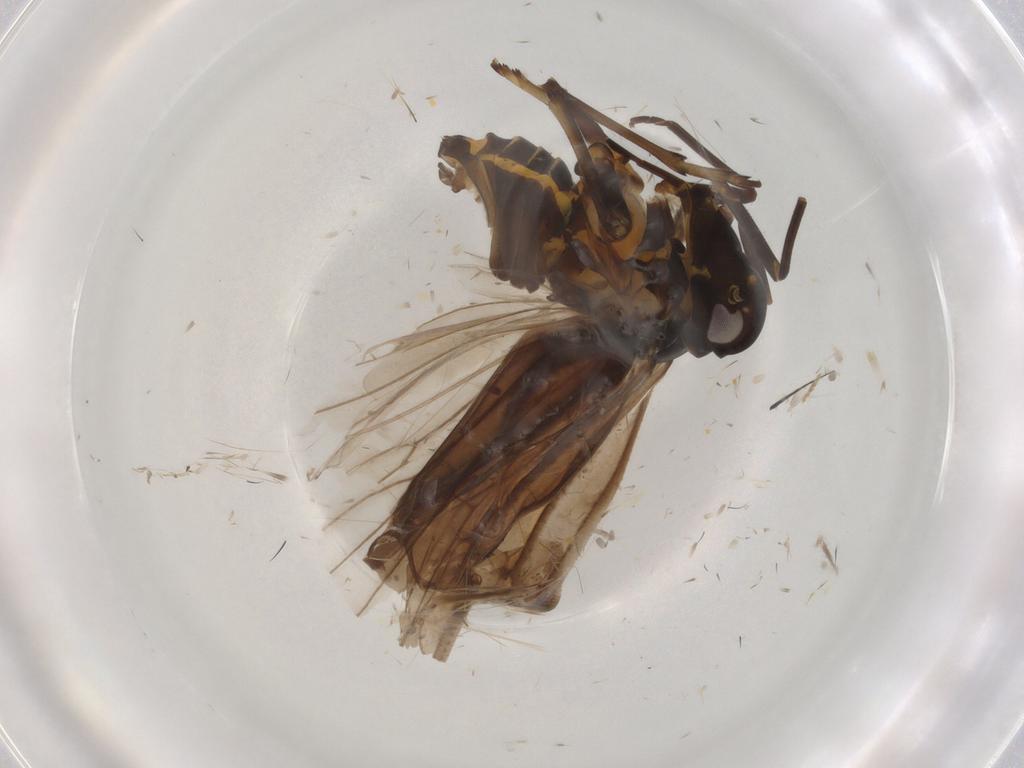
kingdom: Animalia
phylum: Arthropoda
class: Insecta
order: Hemiptera
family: Meenoplidae
